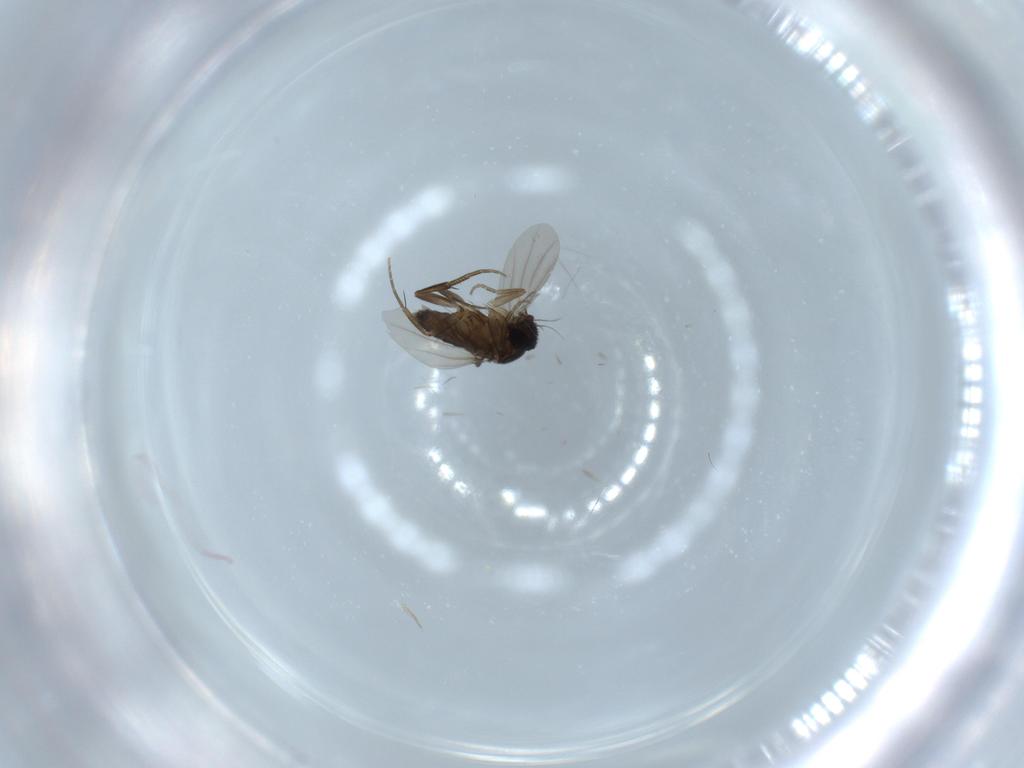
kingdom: Animalia
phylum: Arthropoda
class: Insecta
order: Diptera
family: Phoridae
